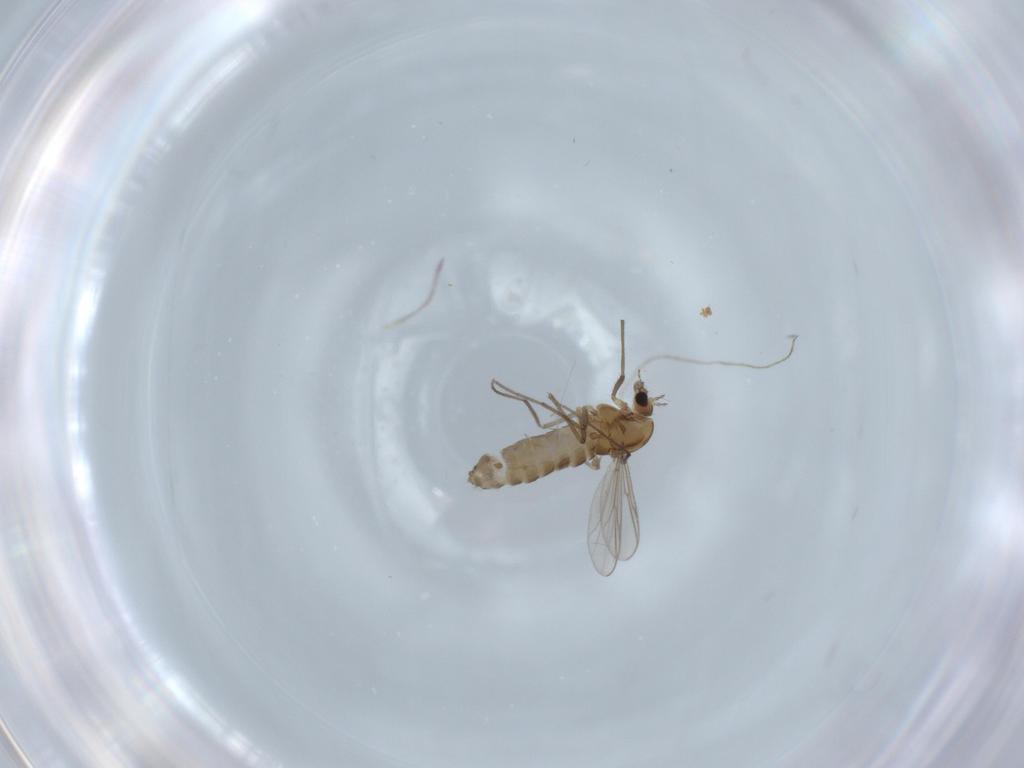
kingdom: Animalia
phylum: Arthropoda
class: Insecta
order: Diptera
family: Chironomidae
